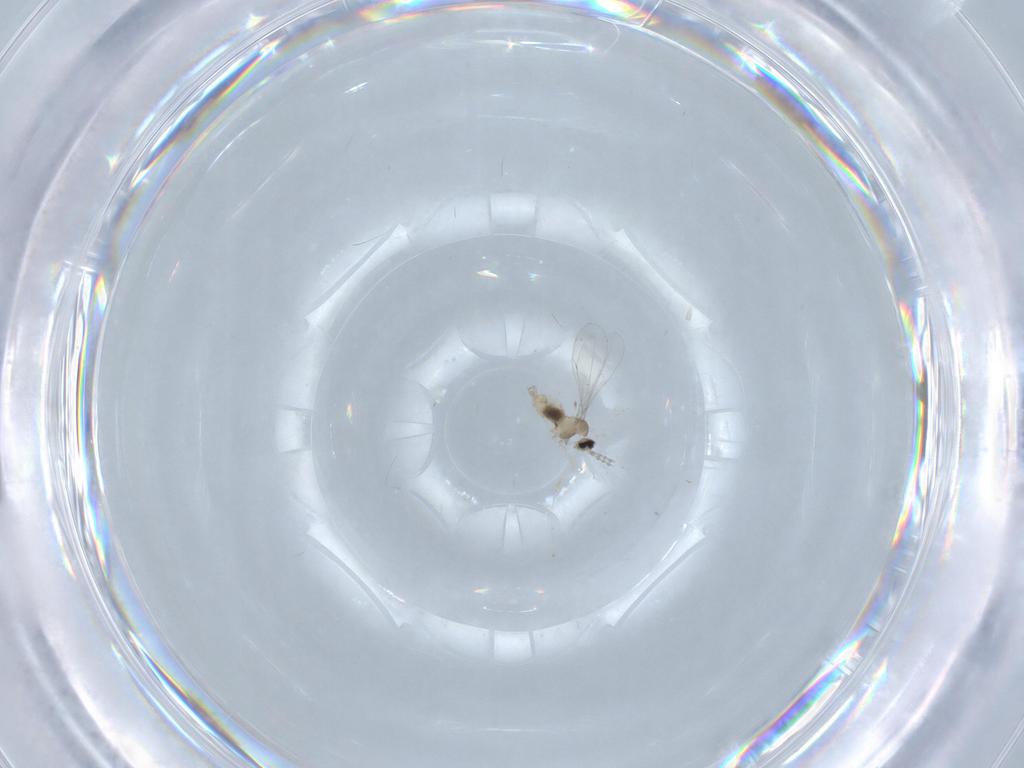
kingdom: Animalia
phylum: Arthropoda
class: Insecta
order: Diptera
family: Cecidomyiidae
